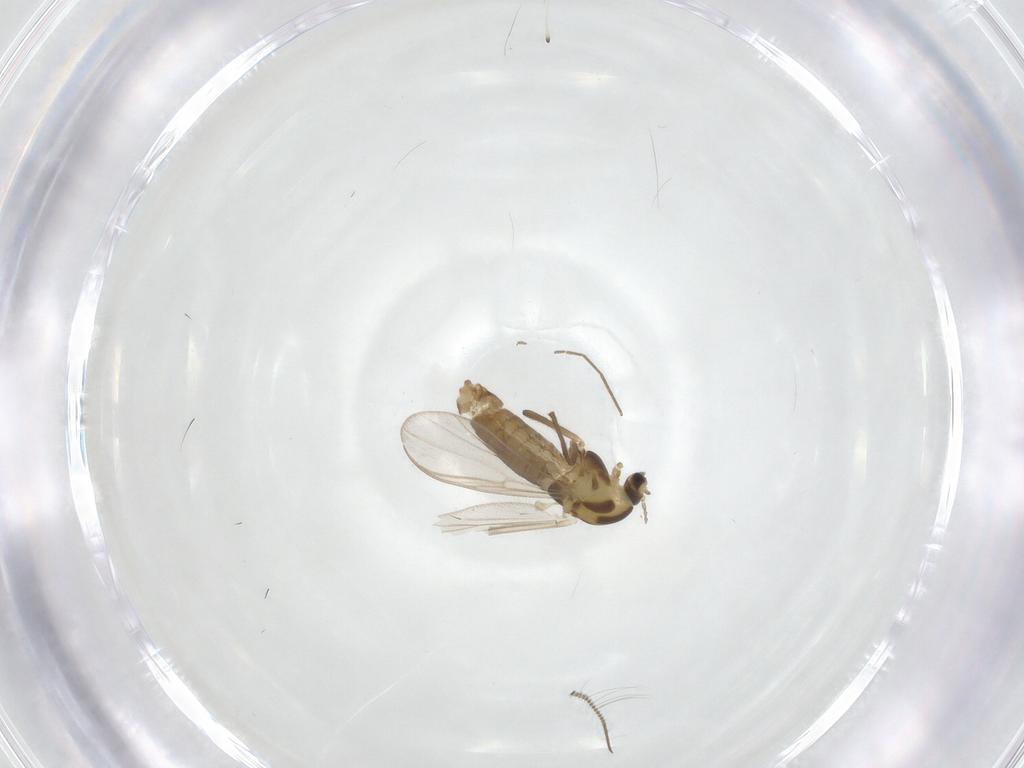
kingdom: Animalia
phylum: Arthropoda
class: Insecta
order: Diptera
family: Chironomidae
